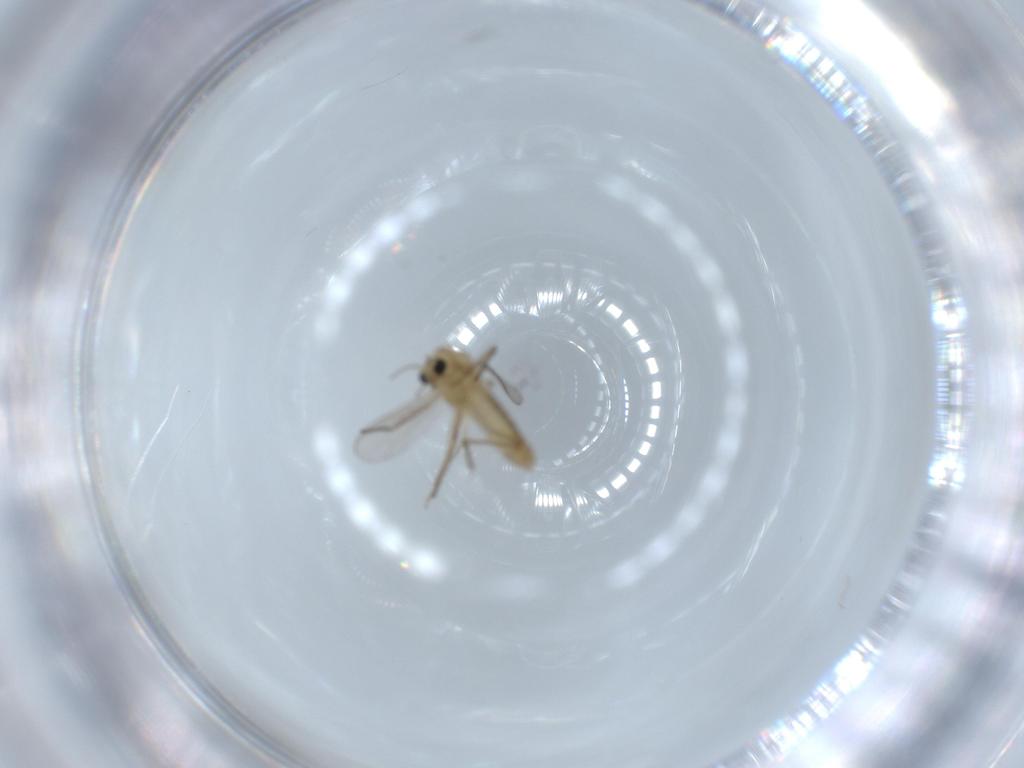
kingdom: Animalia
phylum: Arthropoda
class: Insecta
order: Diptera
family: Chironomidae
